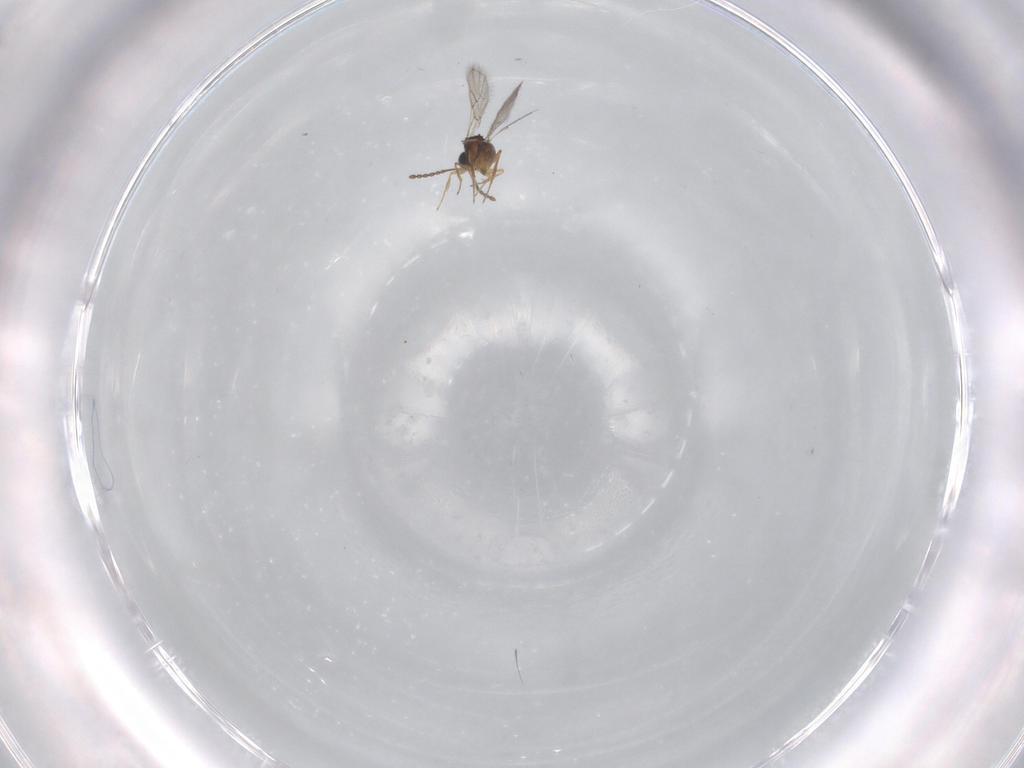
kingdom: Animalia
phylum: Arthropoda
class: Insecta
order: Hymenoptera
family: Figitidae
